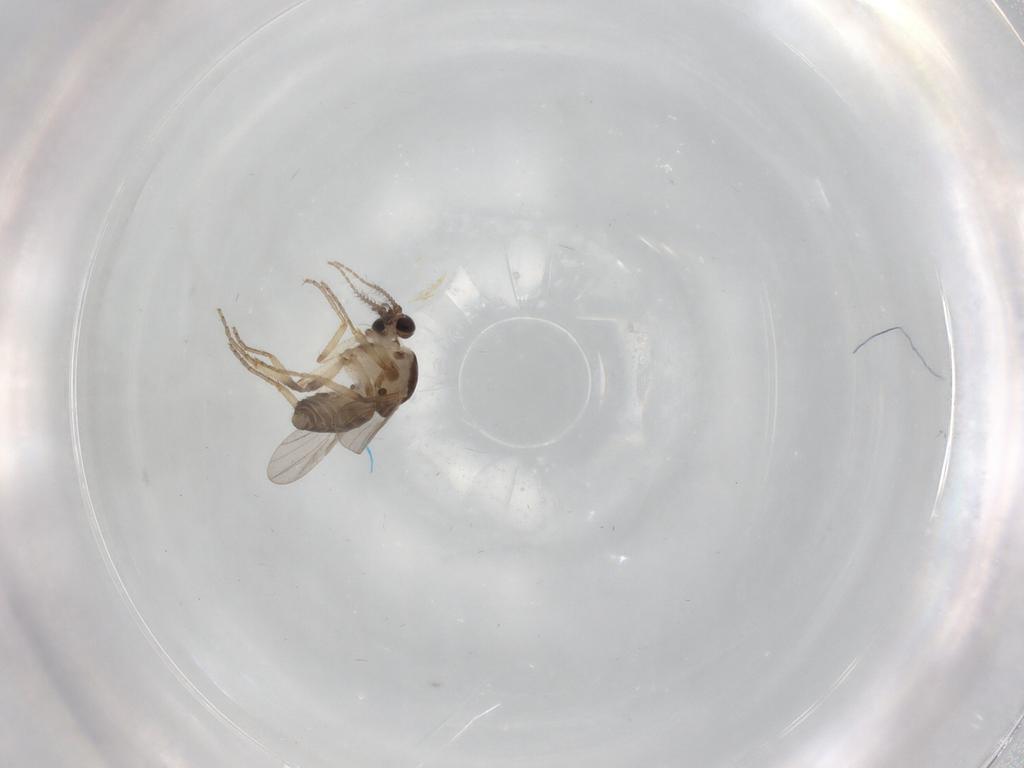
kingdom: Animalia
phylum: Arthropoda
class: Insecta
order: Diptera
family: Ceratopogonidae
